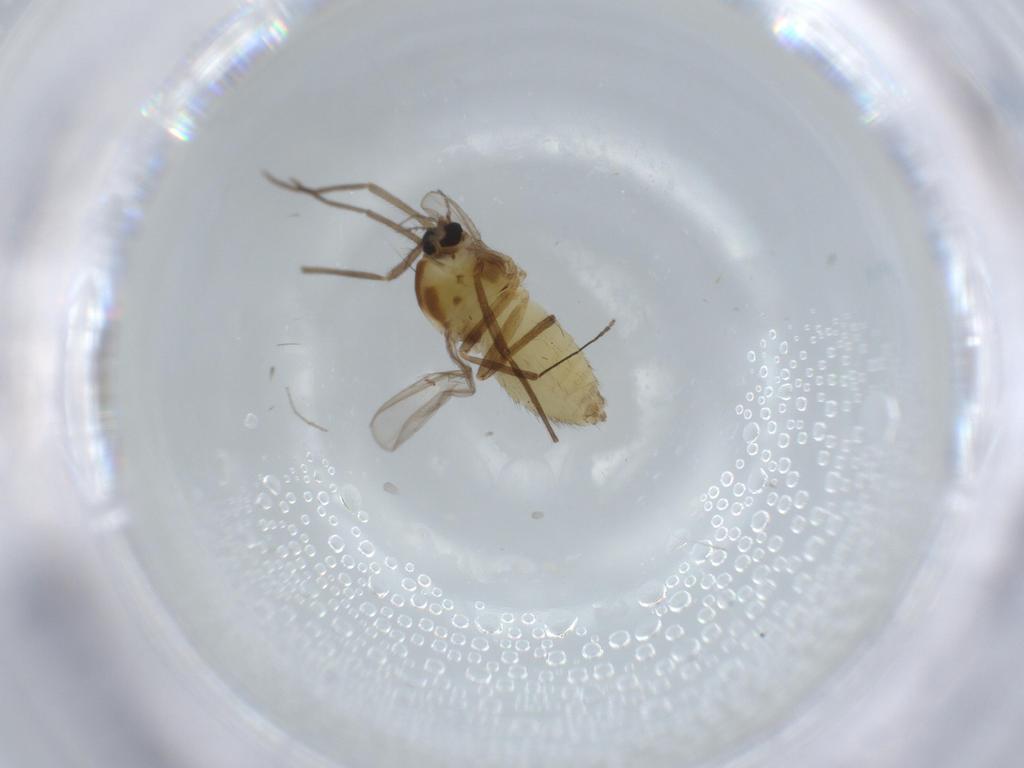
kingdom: Animalia
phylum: Arthropoda
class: Insecta
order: Diptera
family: Chironomidae
